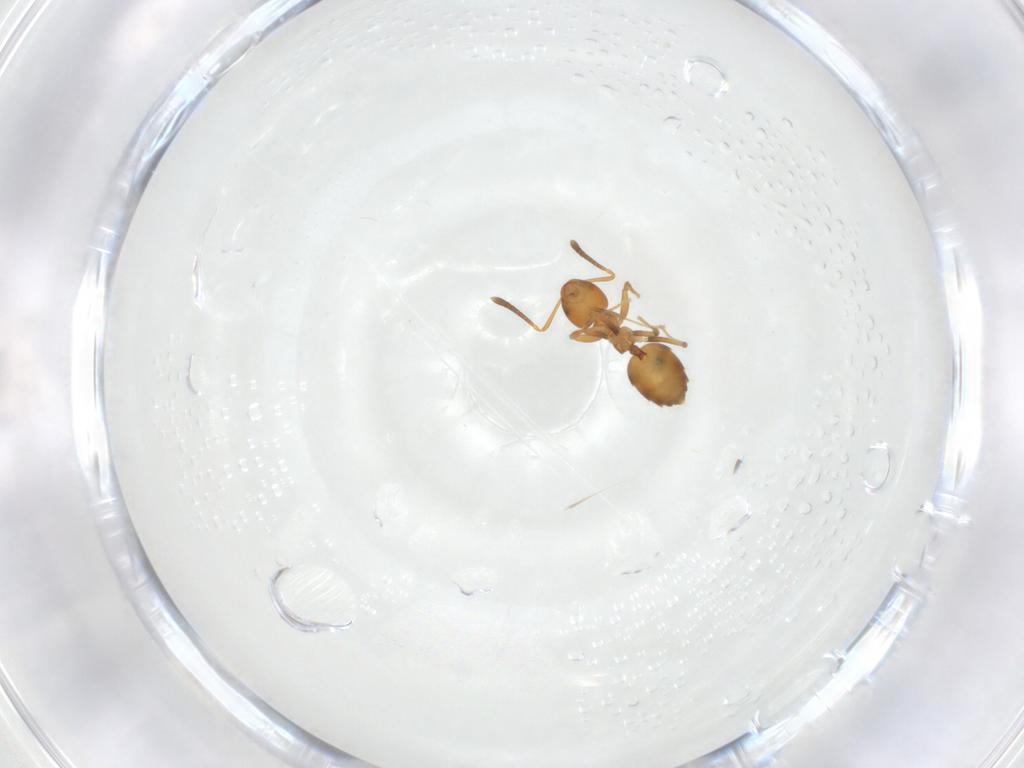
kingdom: Animalia
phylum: Arthropoda
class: Insecta
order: Hymenoptera
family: Formicidae
